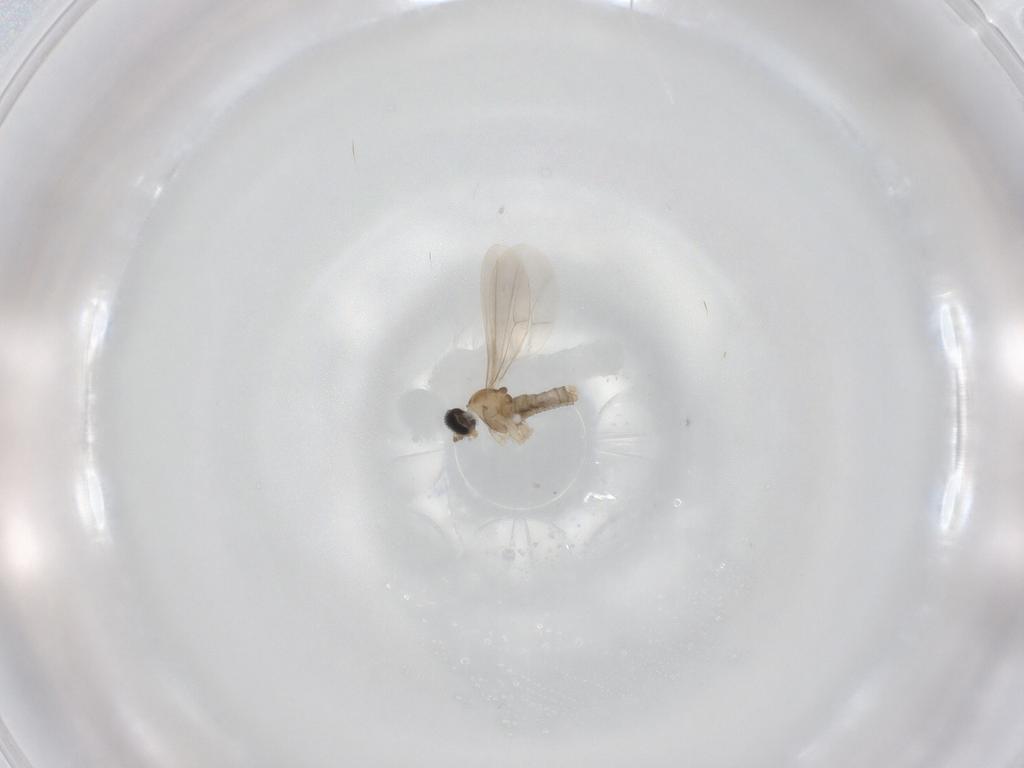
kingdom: Animalia
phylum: Arthropoda
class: Insecta
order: Diptera
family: Cecidomyiidae
